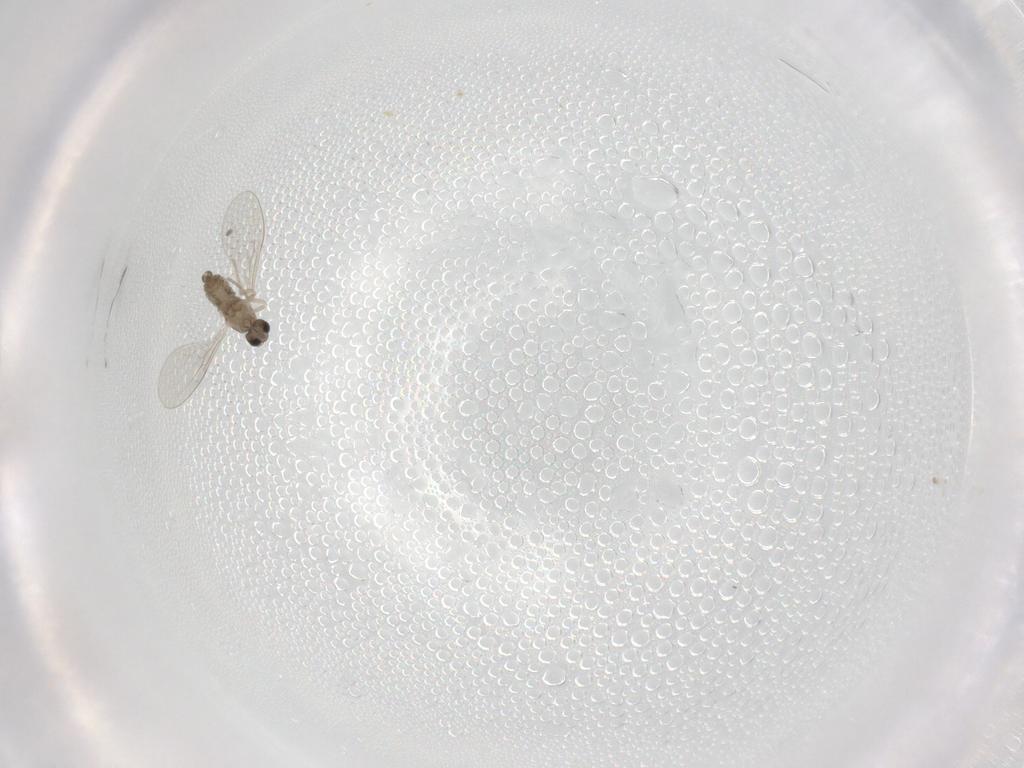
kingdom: Animalia
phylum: Arthropoda
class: Insecta
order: Diptera
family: Cecidomyiidae
